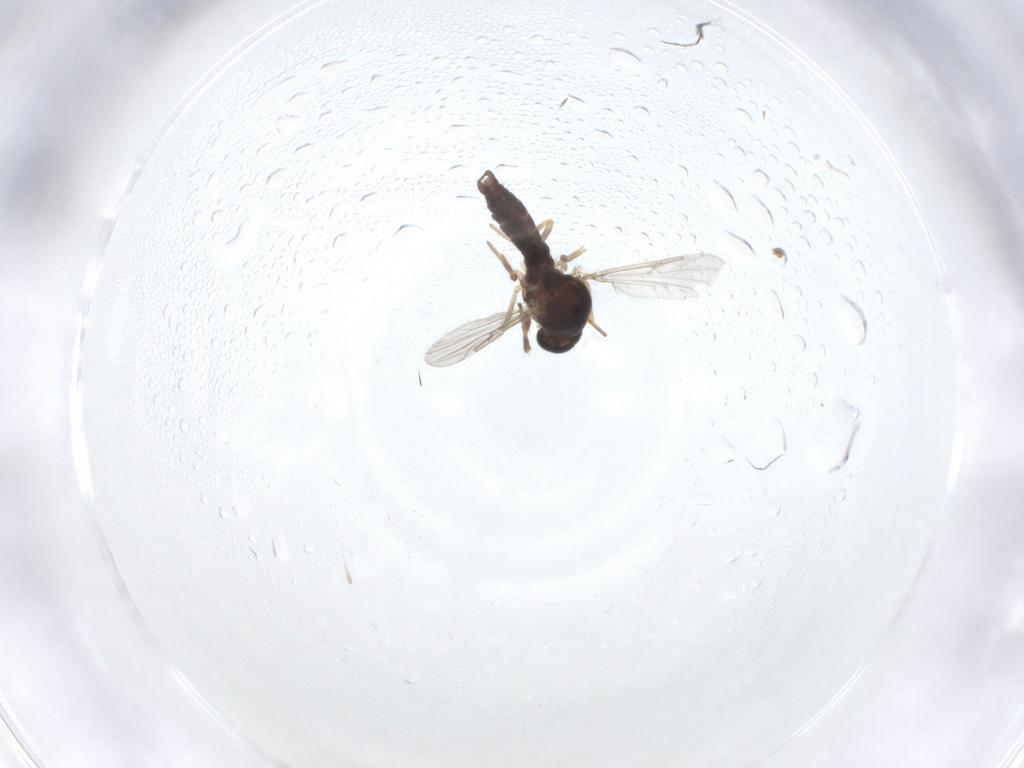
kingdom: Animalia
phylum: Arthropoda
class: Insecta
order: Diptera
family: Ceratopogonidae
